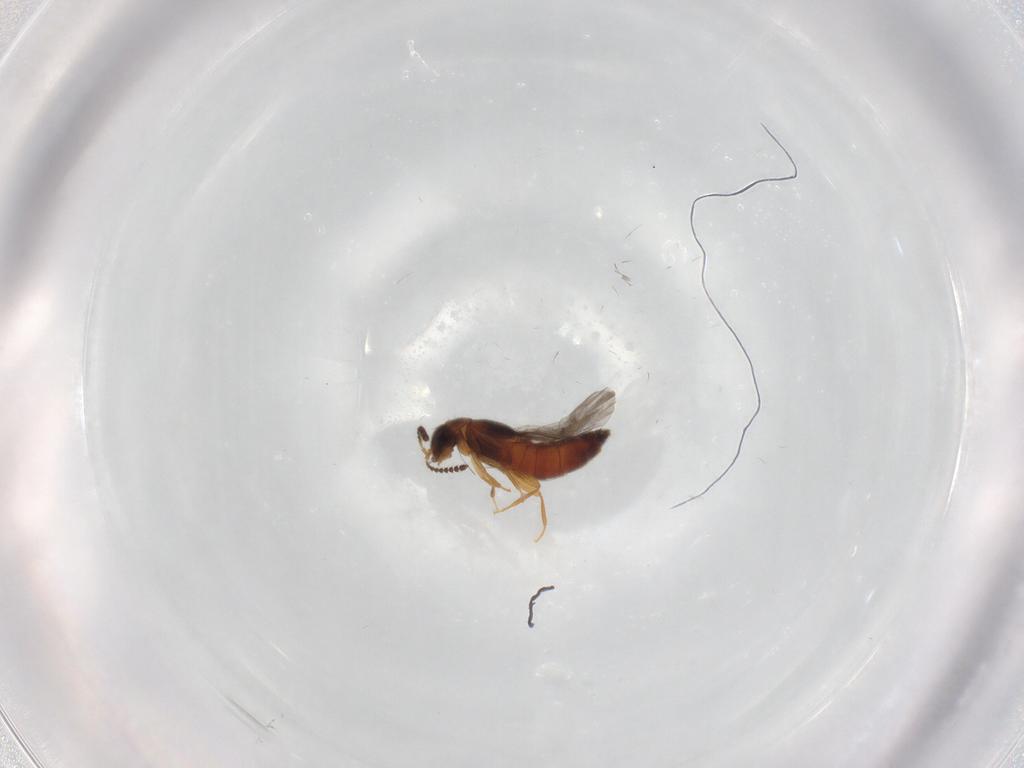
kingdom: Animalia
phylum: Arthropoda
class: Insecta
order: Coleoptera
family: Staphylinidae
